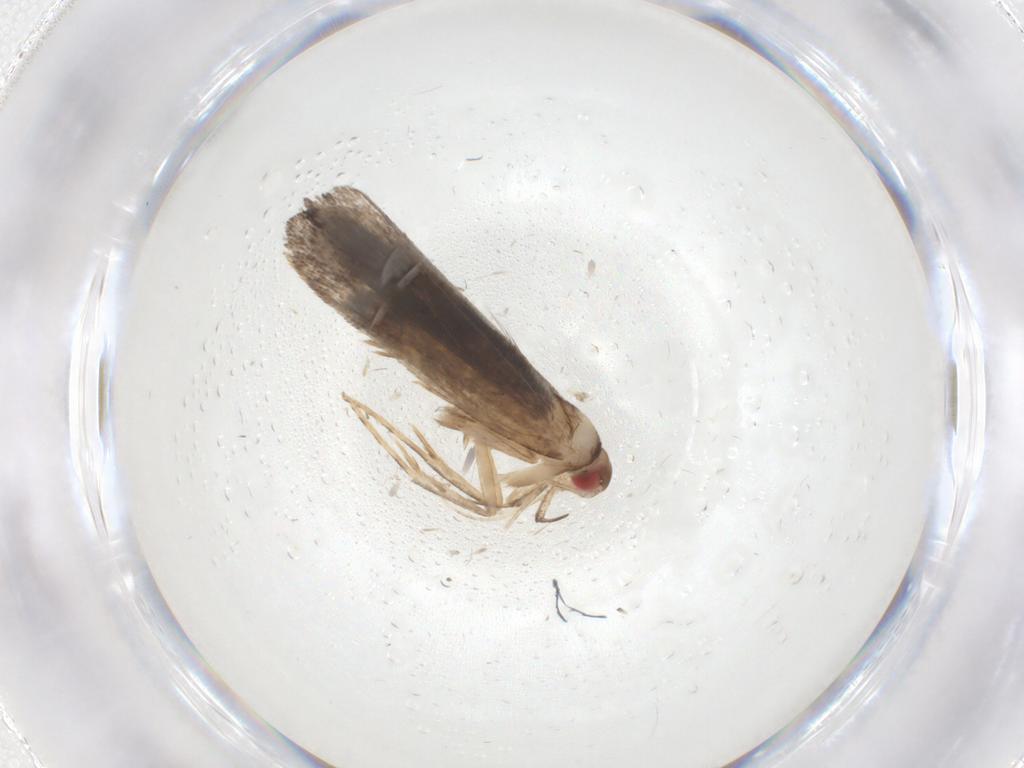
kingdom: Animalia
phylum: Arthropoda
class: Insecta
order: Lepidoptera
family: Gelechiidae
